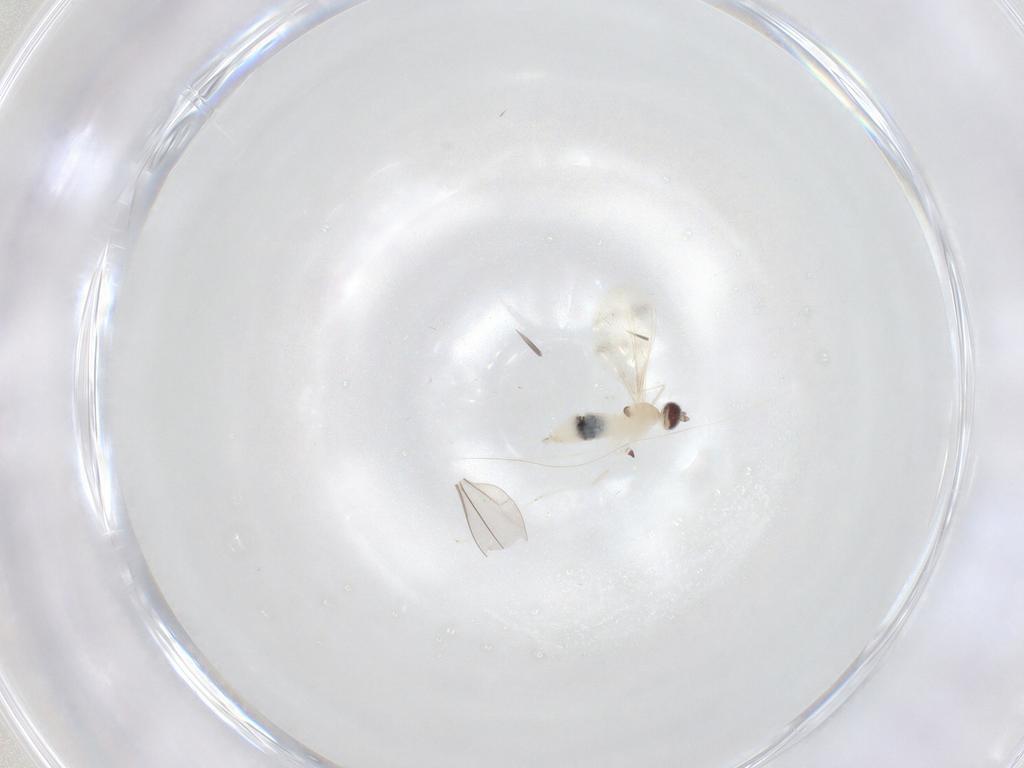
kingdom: Animalia
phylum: Arthropoda
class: Insecta
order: Diptera
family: Cecidomyiidae
